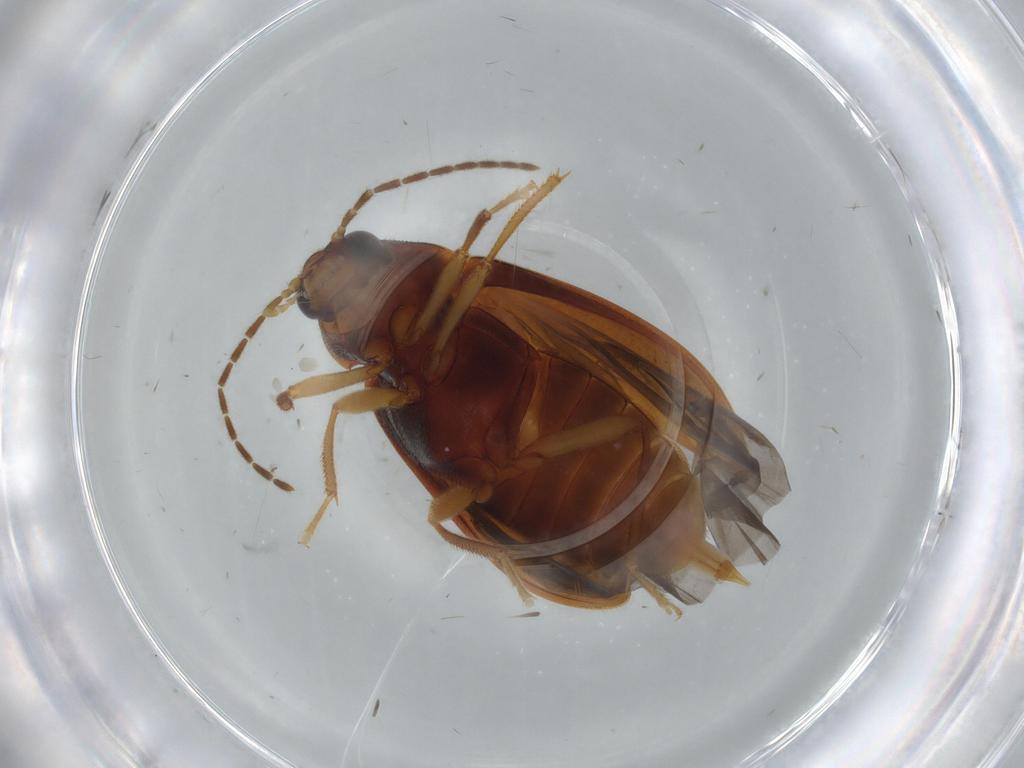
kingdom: Animalia
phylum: Arthropoda
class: Insecta
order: Coleoptera
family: Ptilodactylidae
